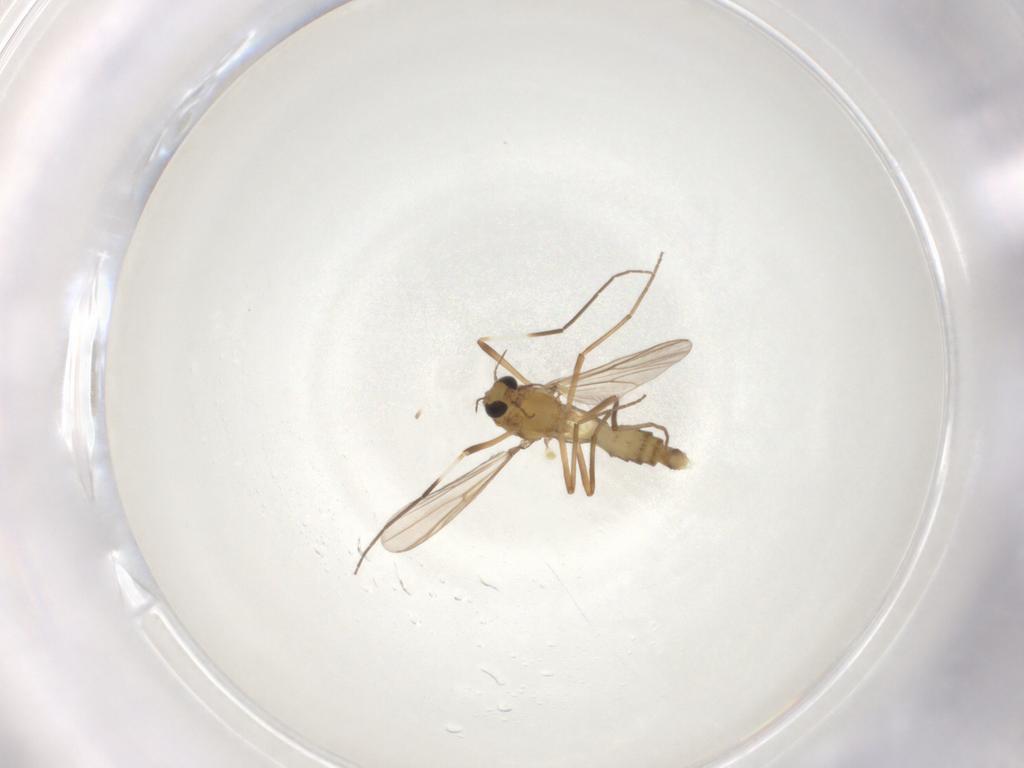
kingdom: Animalia
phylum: Arthropoda
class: Insecta
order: Diptera
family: Chironomidae
